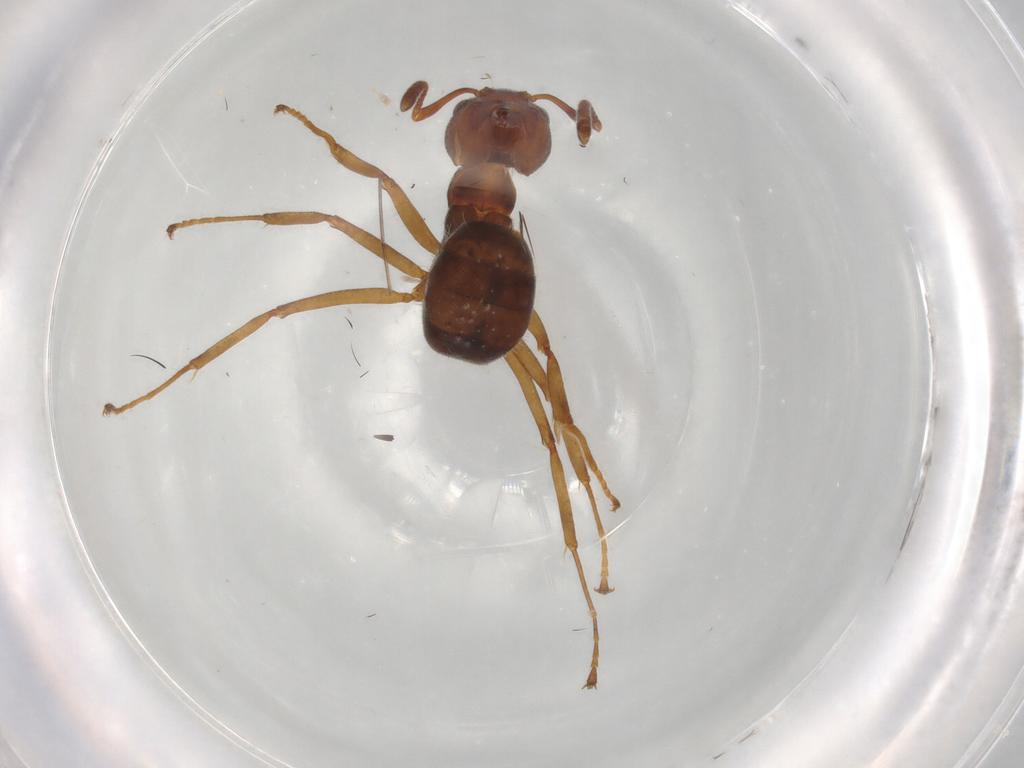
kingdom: Animalia
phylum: Arthropoda
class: Insecta
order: Hymenoptera
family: Formicidae
